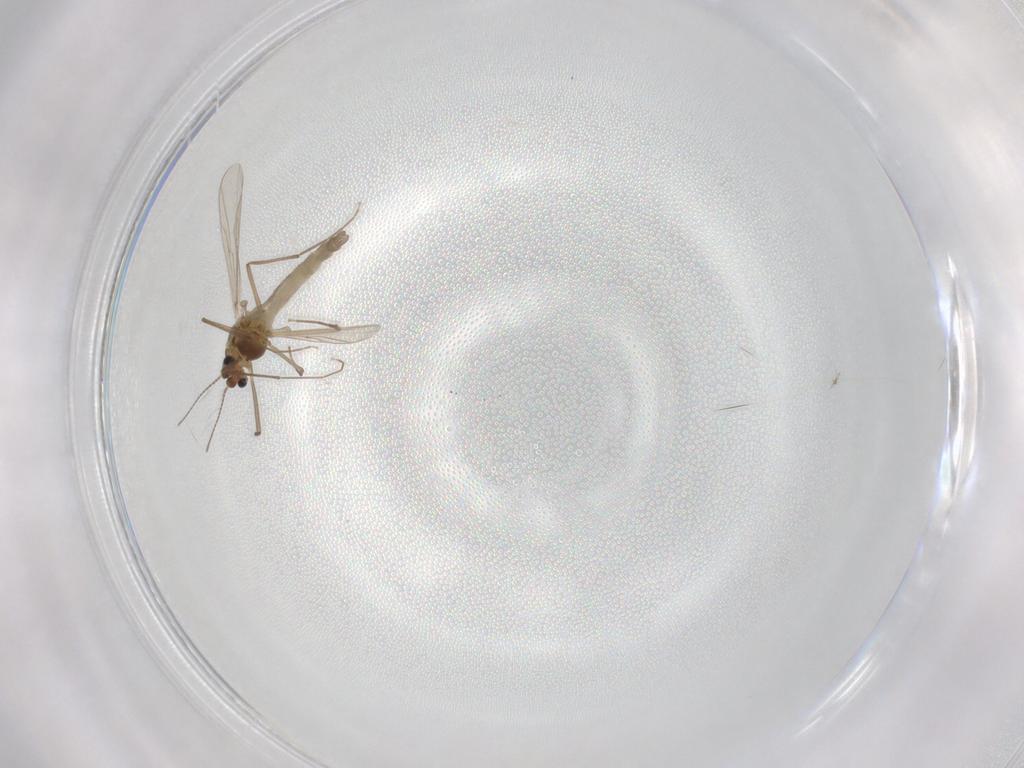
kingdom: Animalia
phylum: Arthropoda
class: Insecta
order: Diptera
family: Chironomidae
